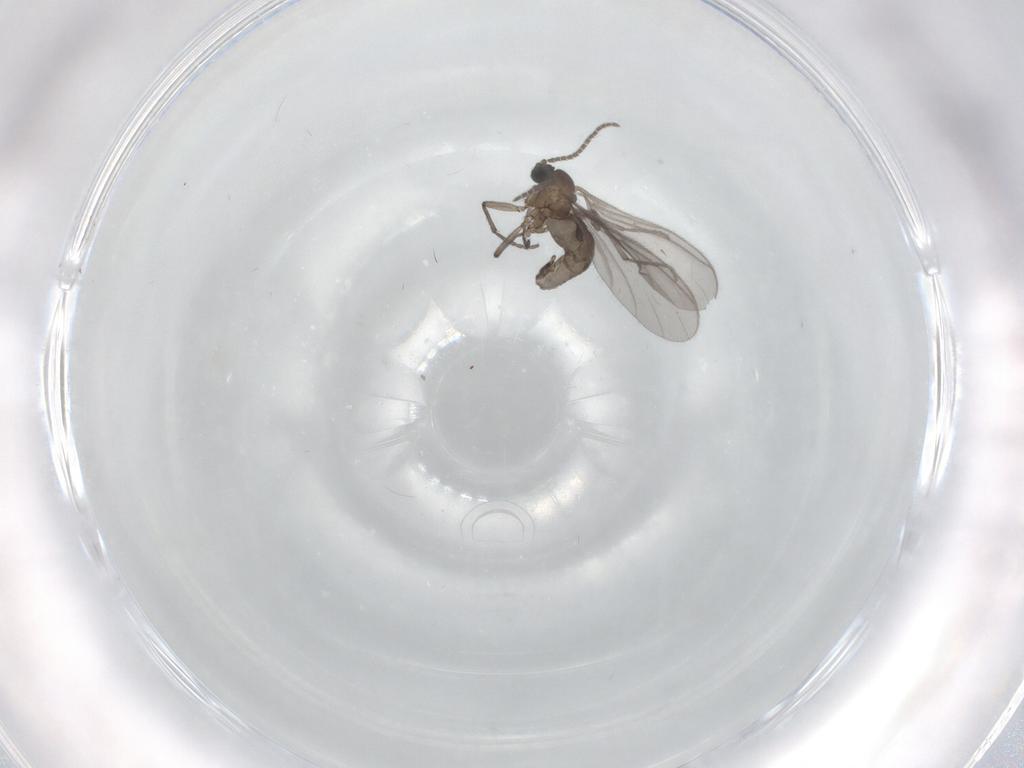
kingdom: Animalia
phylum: Arthropoda
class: Insecta
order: Diptera
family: Sciaridae
